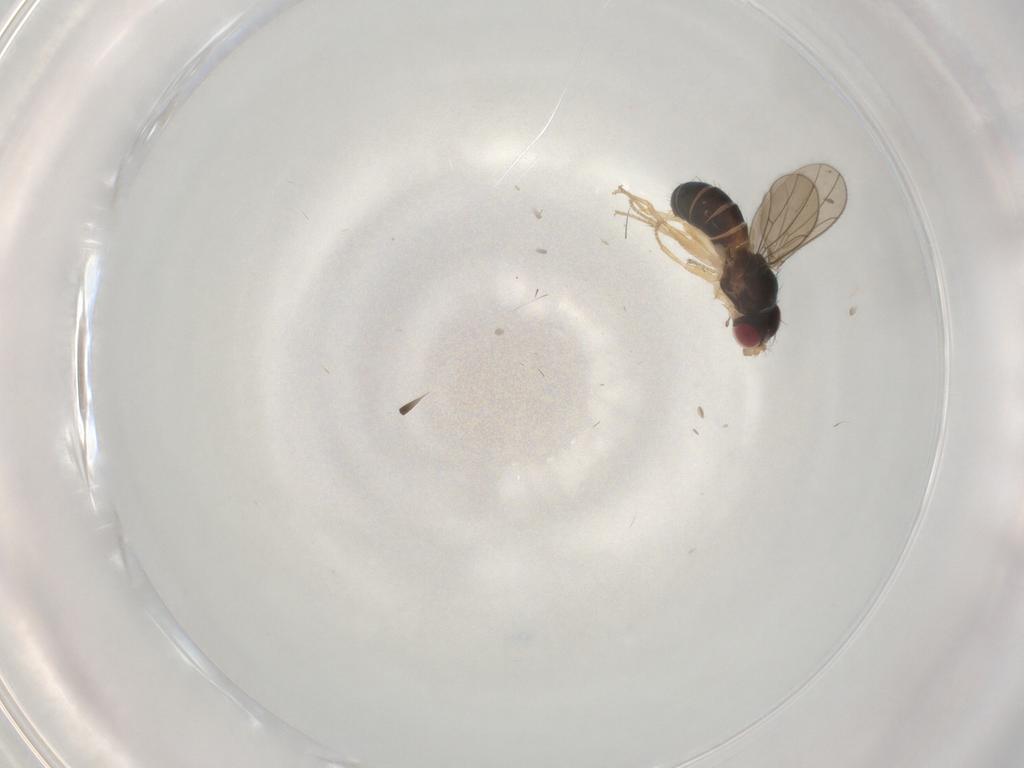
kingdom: Animalia
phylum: Arthropoda
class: Insecta
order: Diptera
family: Drosophilidae
